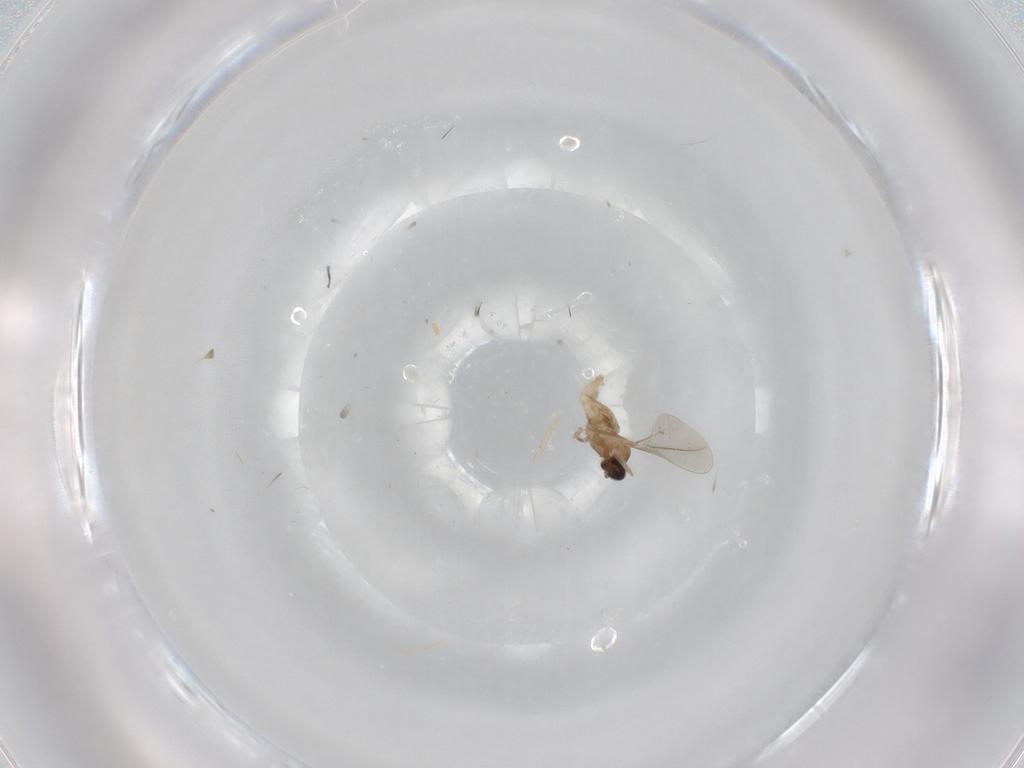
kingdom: Animalia
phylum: Arthropoda
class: Insecta
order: Diptera
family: Cecidomyiidae
